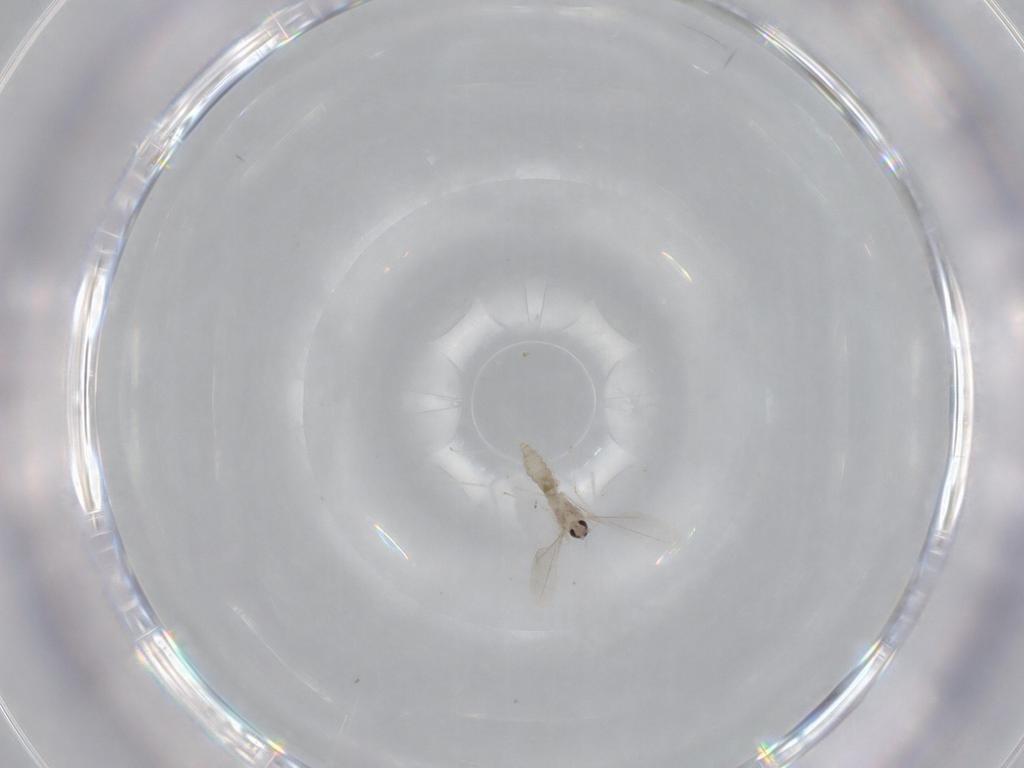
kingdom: Animalia
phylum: Arthropoda
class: Insecta
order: Diptera
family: Cecidomyiidae
